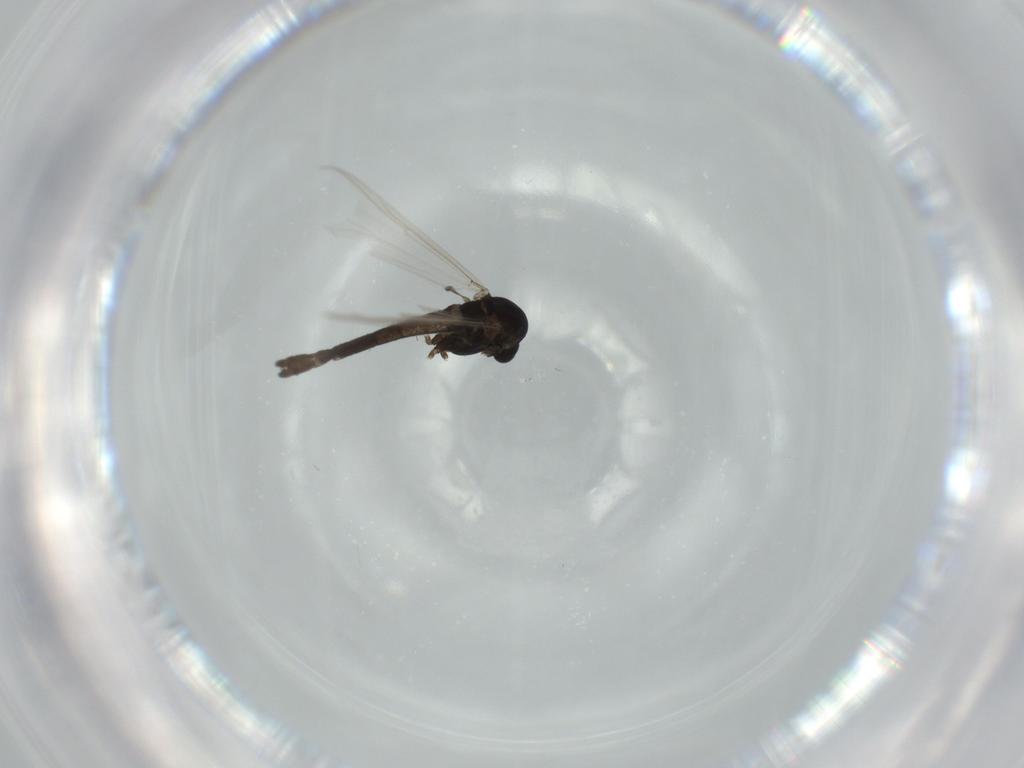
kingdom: Animalia
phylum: Arthropoda
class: Insecta
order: Diptera
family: Chironomidae
